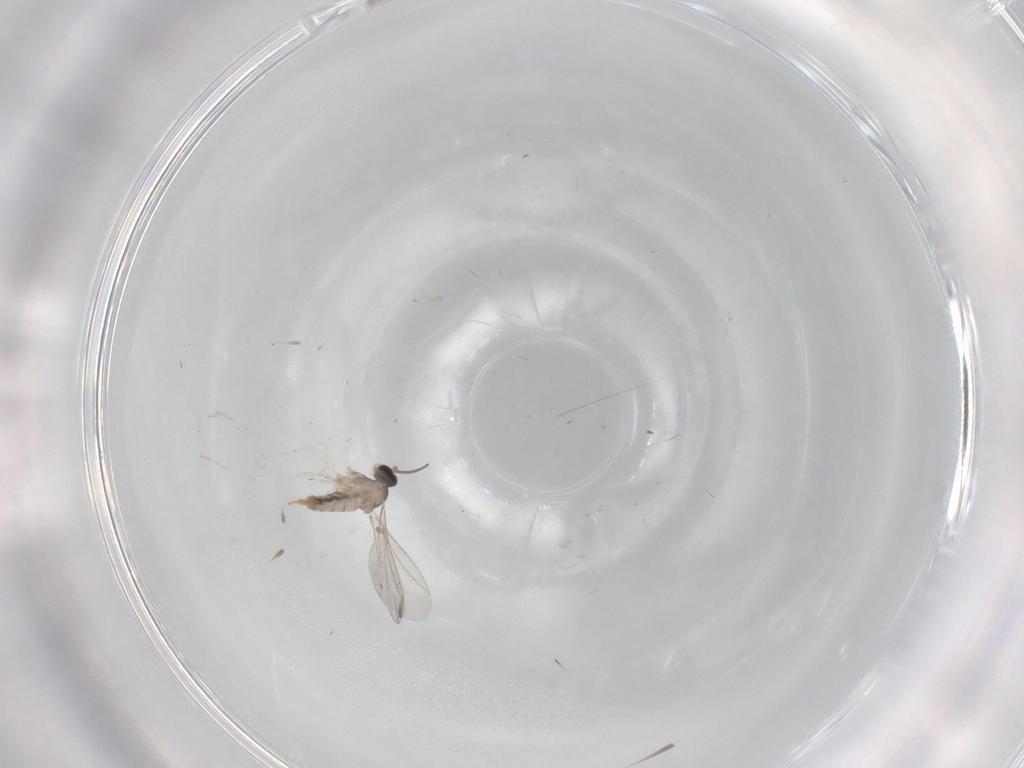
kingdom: Animalia
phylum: Arthropoda
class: Insecta
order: Diptera
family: Cecidomyiidae
